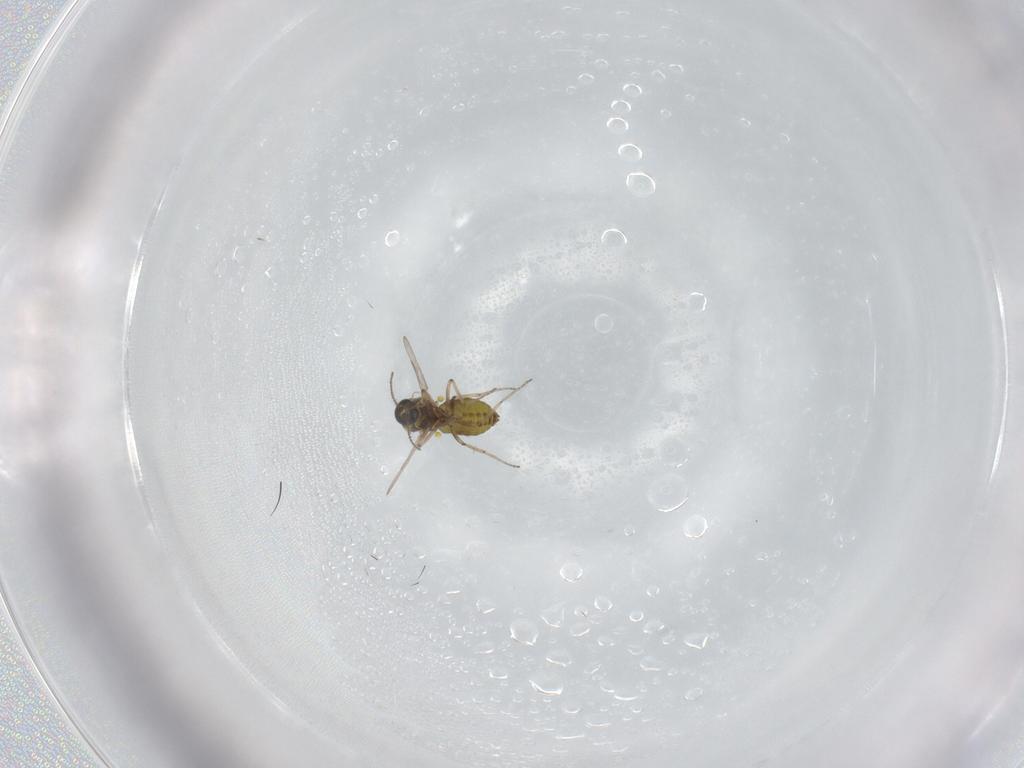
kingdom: Animalia
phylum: Arthropoda
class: Insecta
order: Diptera
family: Ceratopogonidae
